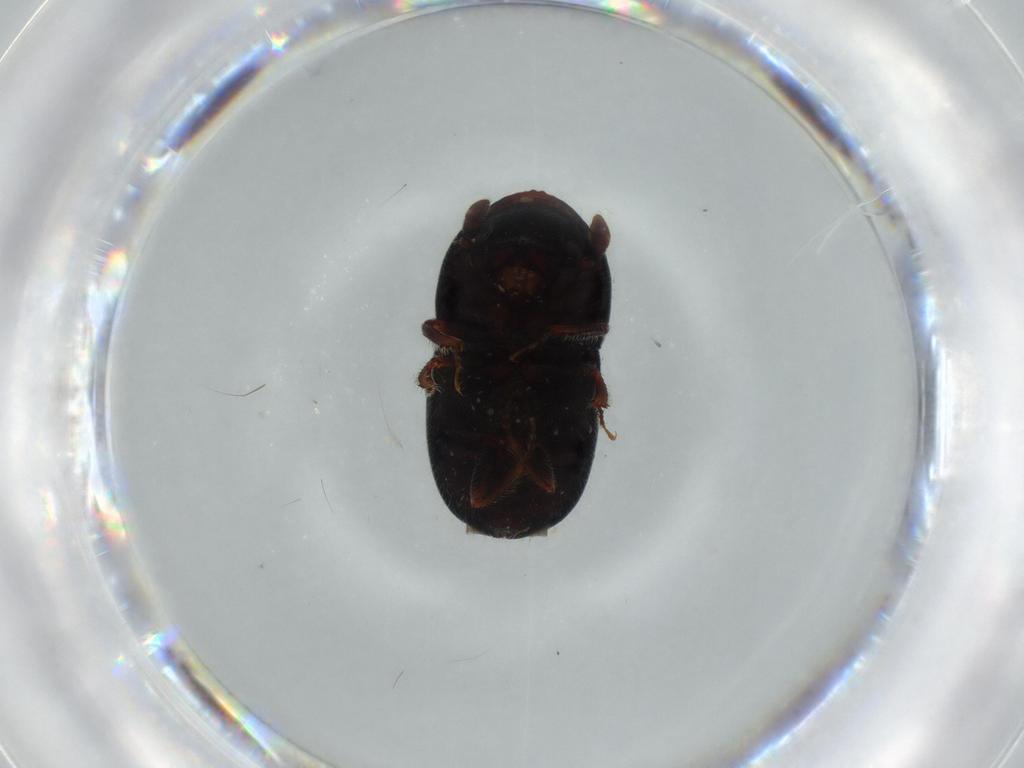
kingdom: Animalia
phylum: Arthropoda
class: Insecta
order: Coleoptera
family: Curculionidae
